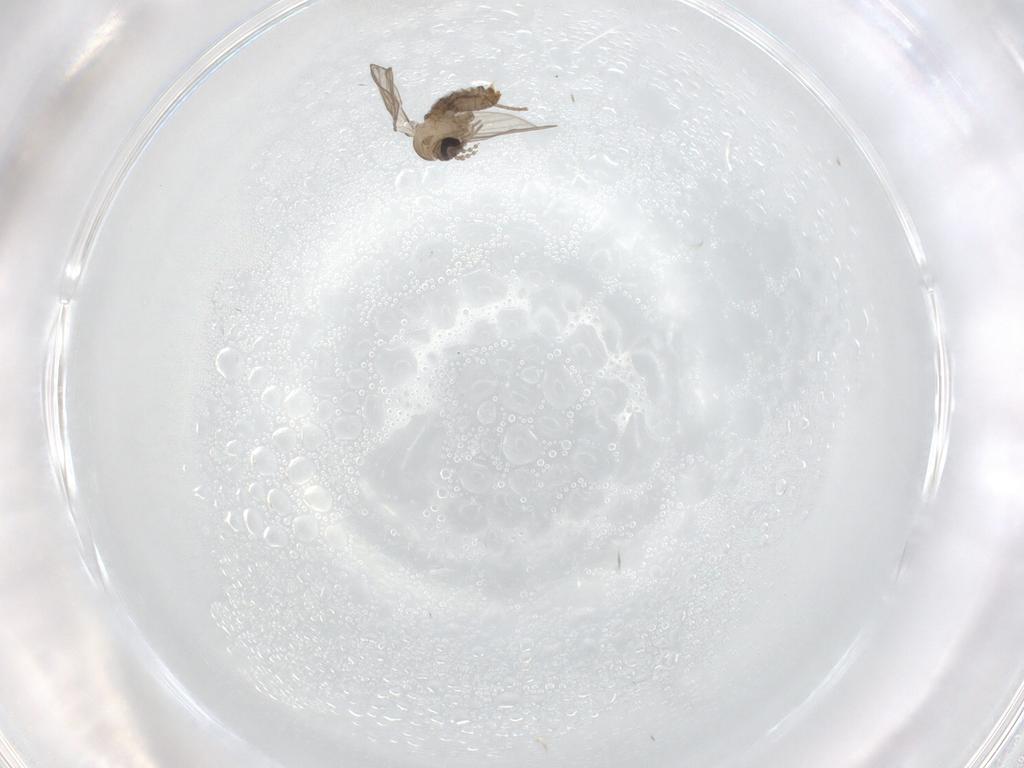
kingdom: Animalia
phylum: Arthropoda
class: Insecta
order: Diptera
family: Psychodidae
